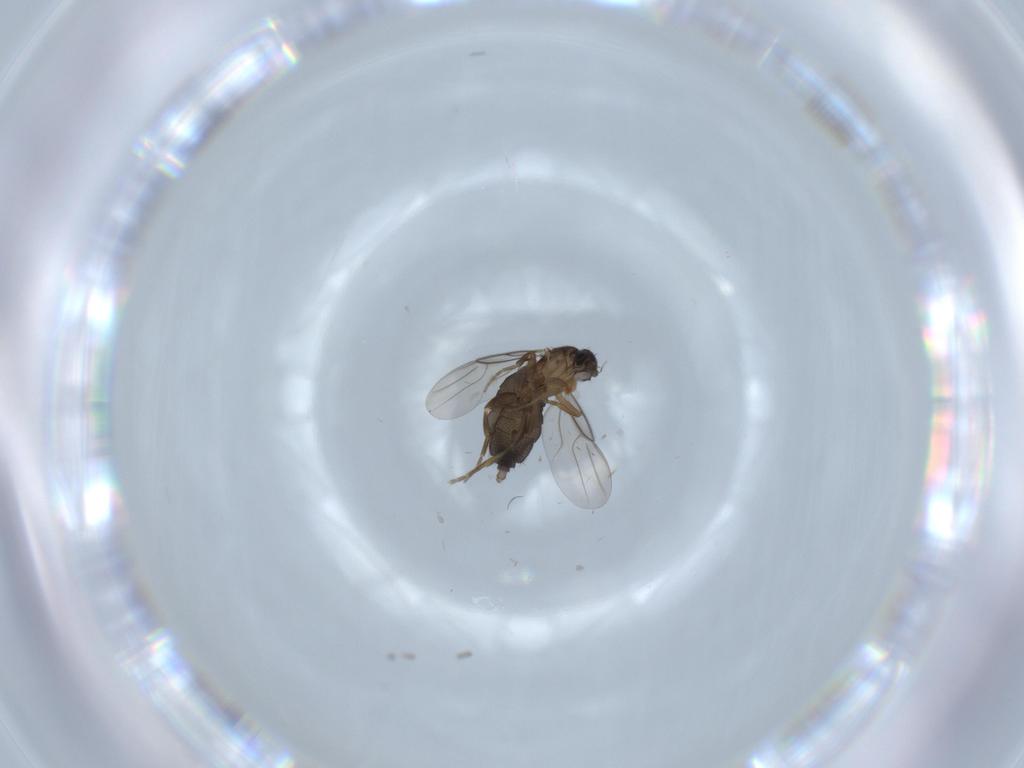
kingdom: Animalia
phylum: Arthropoda
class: Insecta
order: Diptera
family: Phoridae
